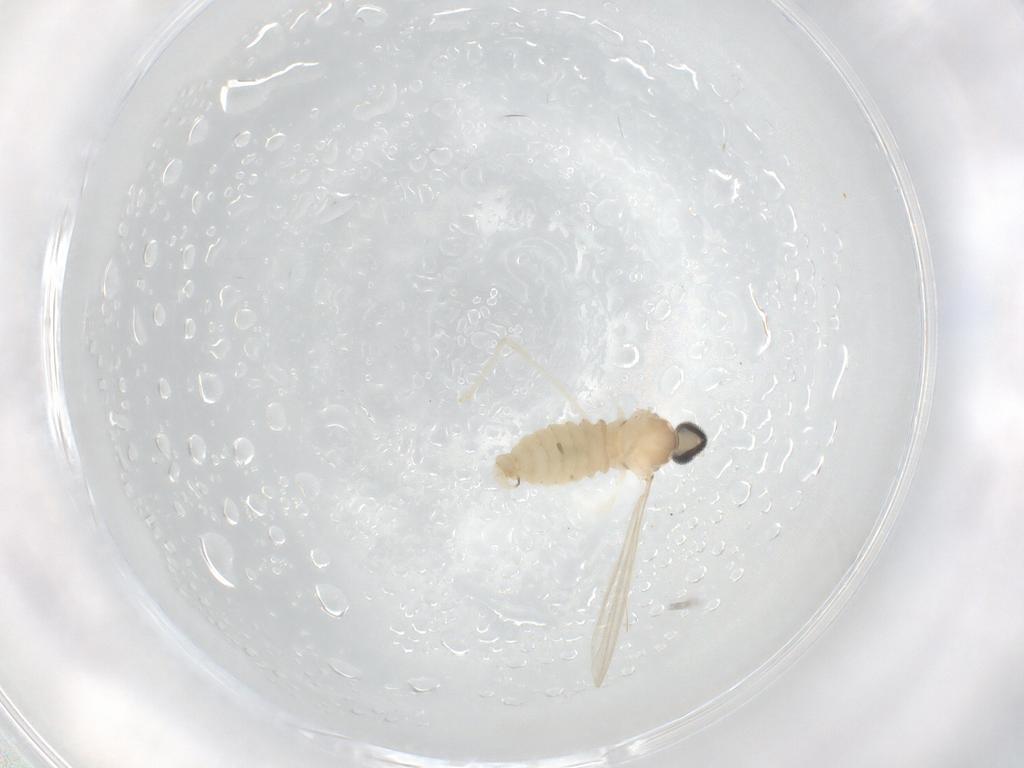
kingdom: Animalia
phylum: Arthropoda
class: Insecta
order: Diptera
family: Cecidomyiidae
